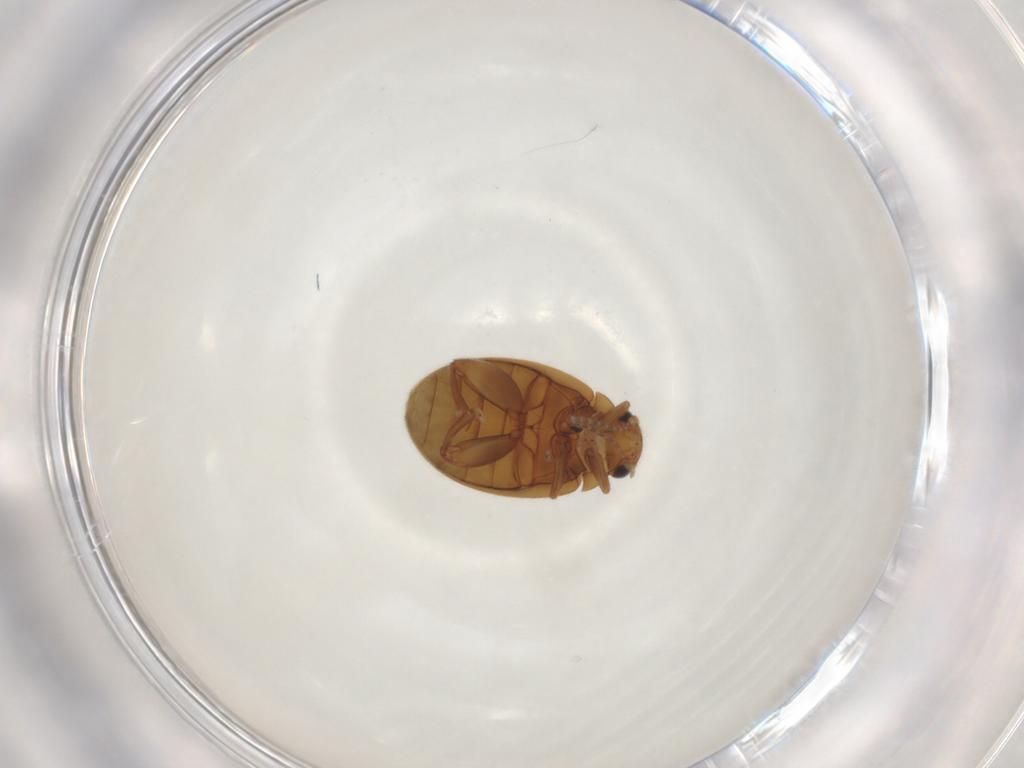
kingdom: Animalia
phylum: Arthropoda
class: Insecta
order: Coleoptera
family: Scirtidae
